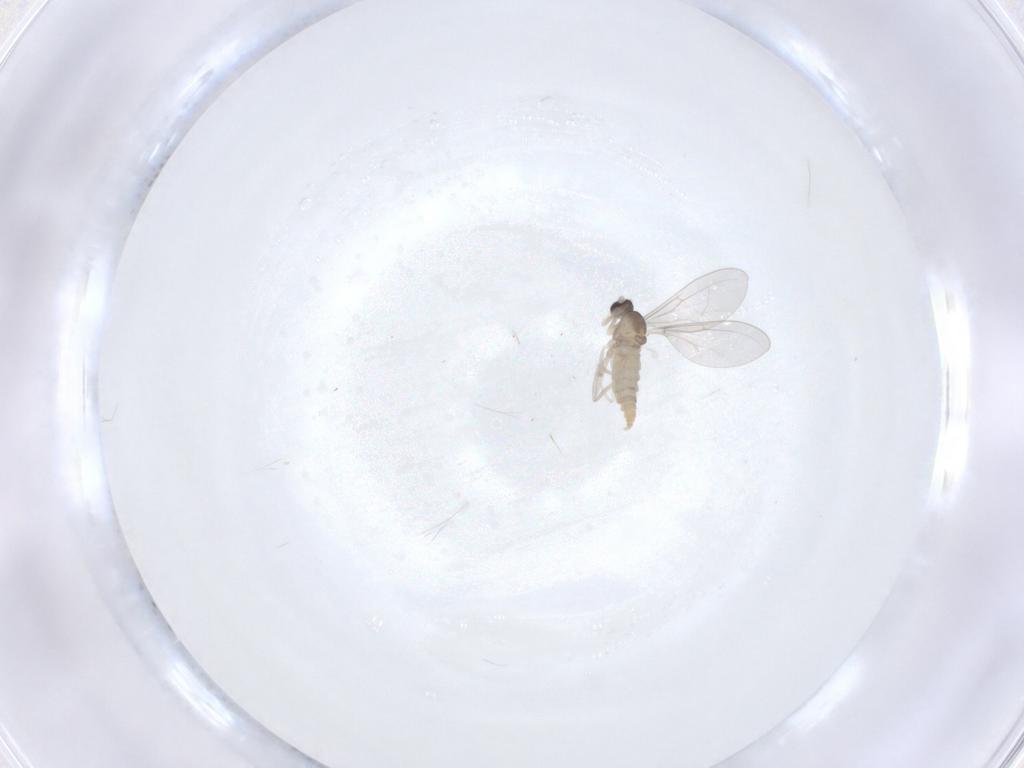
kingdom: Animalia
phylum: Arthropoda
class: Insecta
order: Diptera
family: Cecidomyiidae
